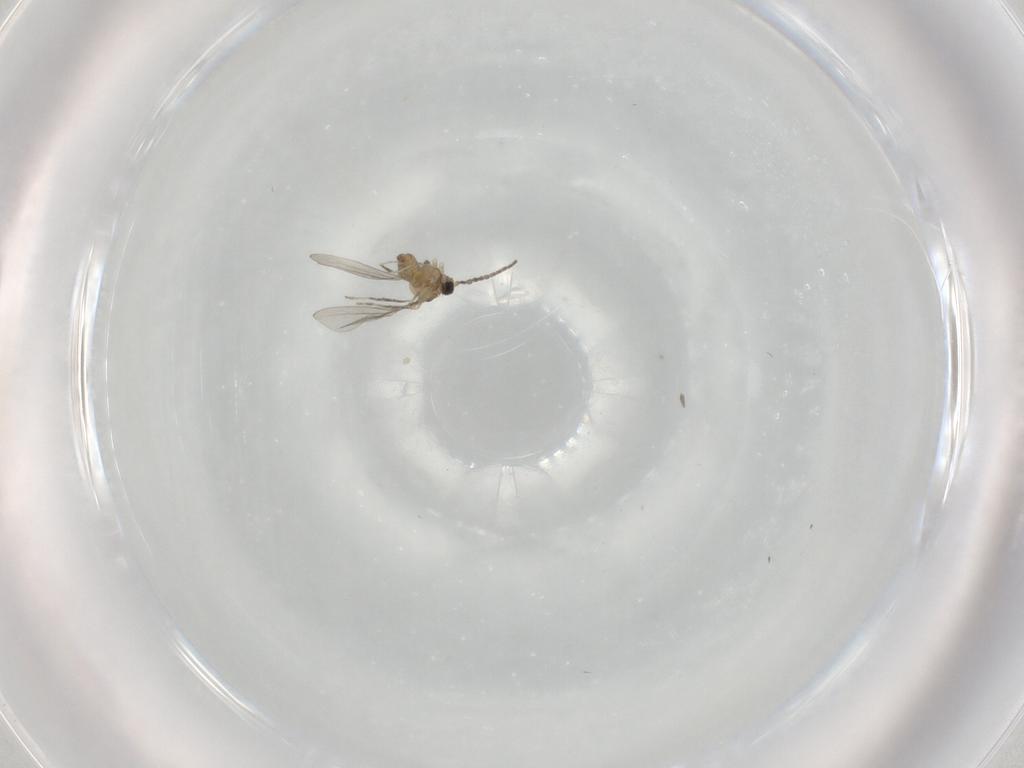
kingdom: Animalia
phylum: Arthropoda
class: Insecta
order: Diptera
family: Cecidomyiidae
